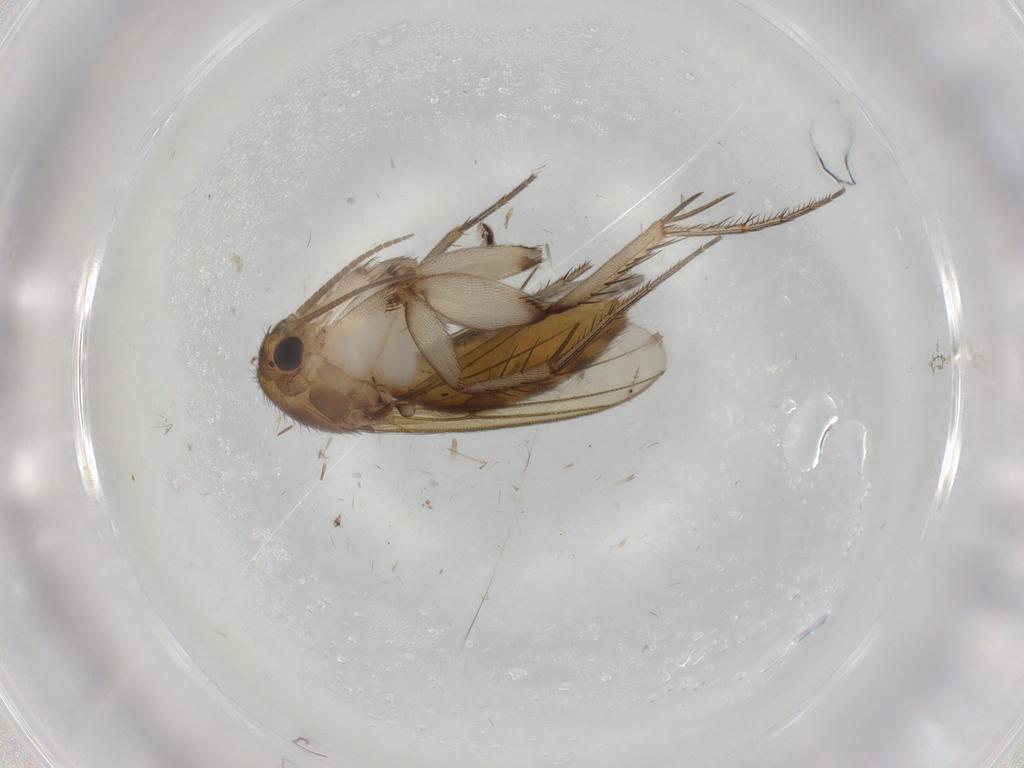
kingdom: Animalia
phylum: Arthropoda
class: Insecta
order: Diptera
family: Mycetophilidae
